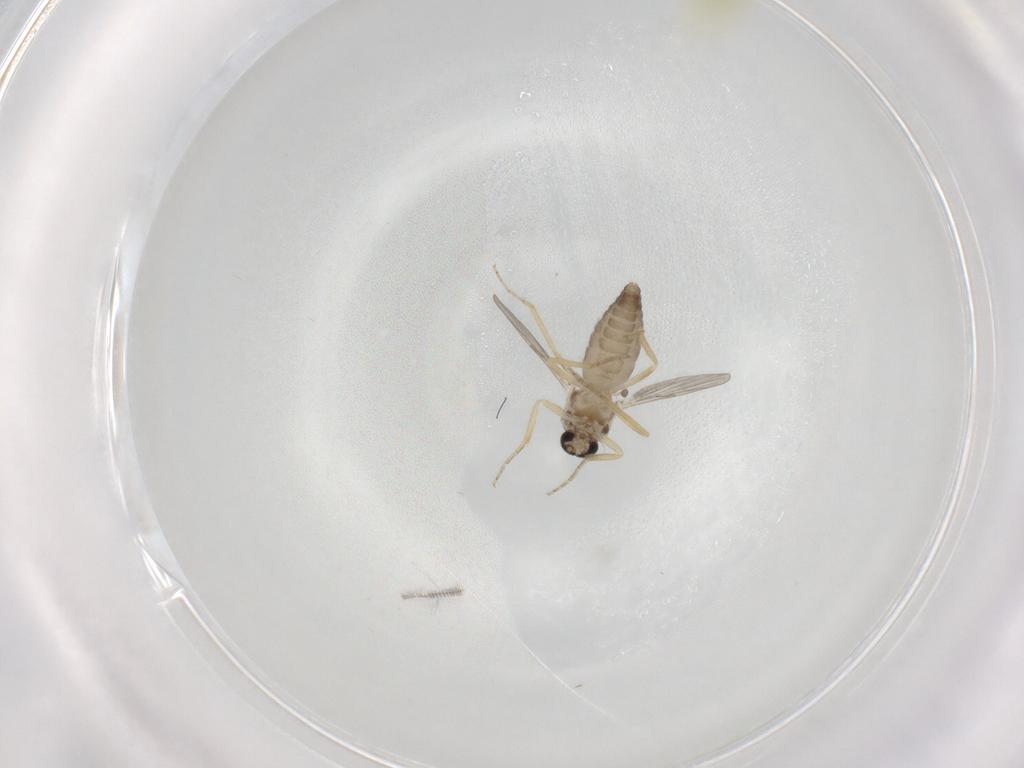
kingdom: Animalia
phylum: Arthropoda
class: Insecta
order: Diptera
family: Ceratopogonidae
